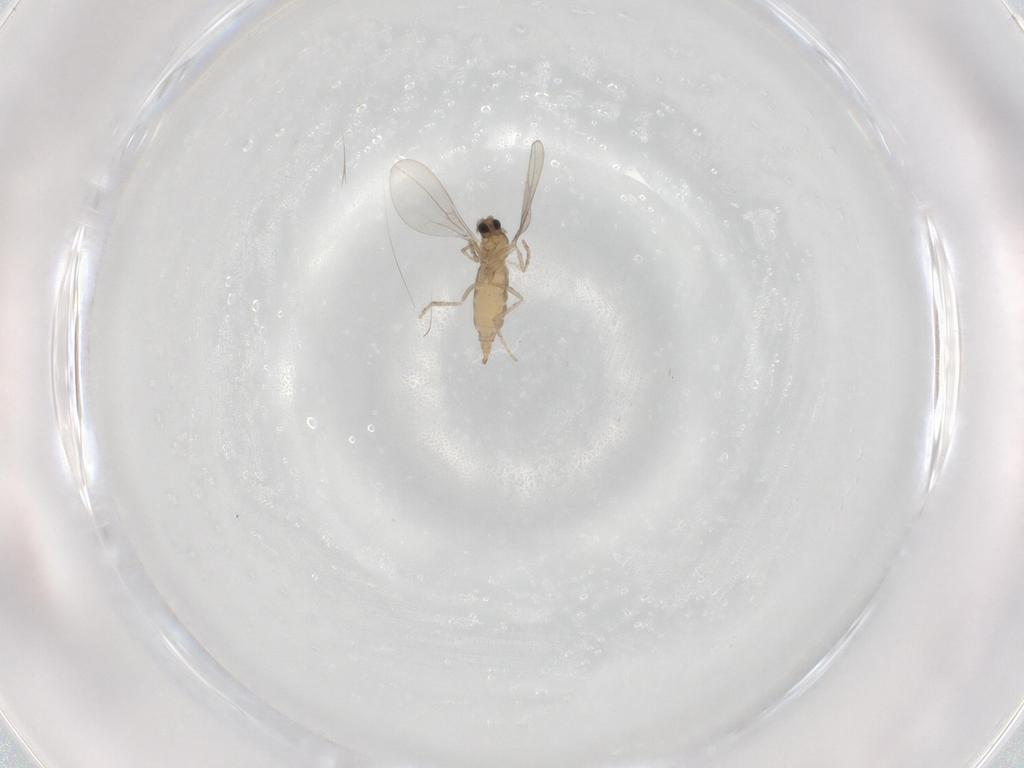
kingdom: Animalia
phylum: Arthropoda
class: Insecta
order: Diptera
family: Cecidomyiidae
